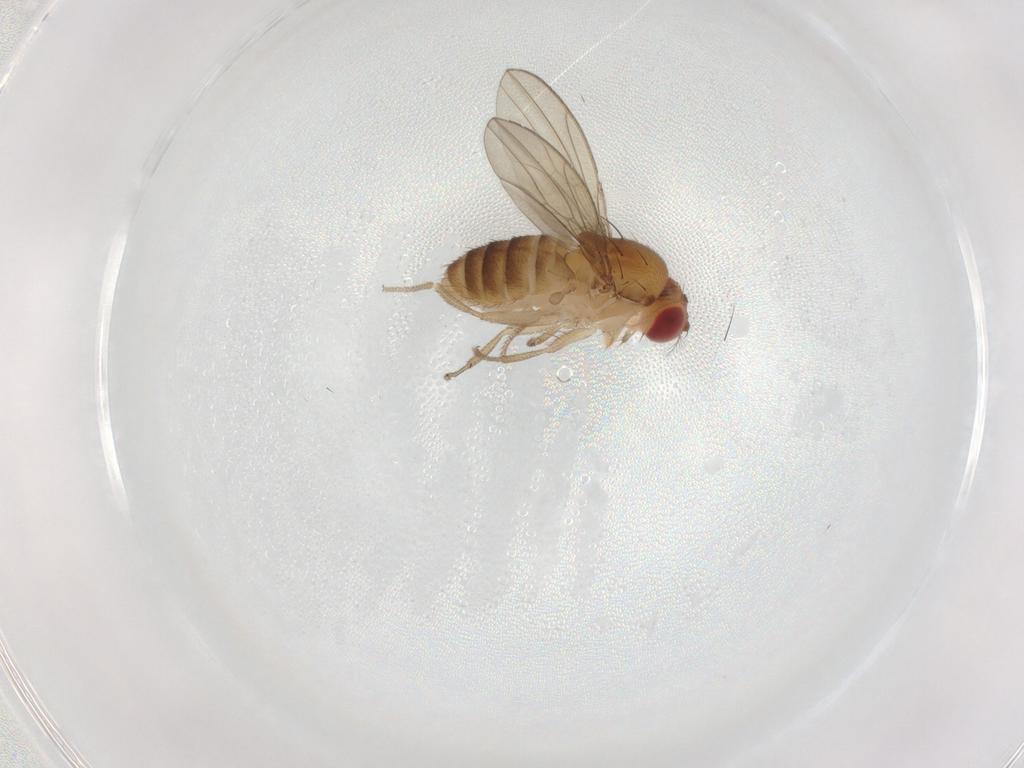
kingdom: Animalia
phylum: Arthropoda
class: Insecta
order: Diptera
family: Drosophilidae
